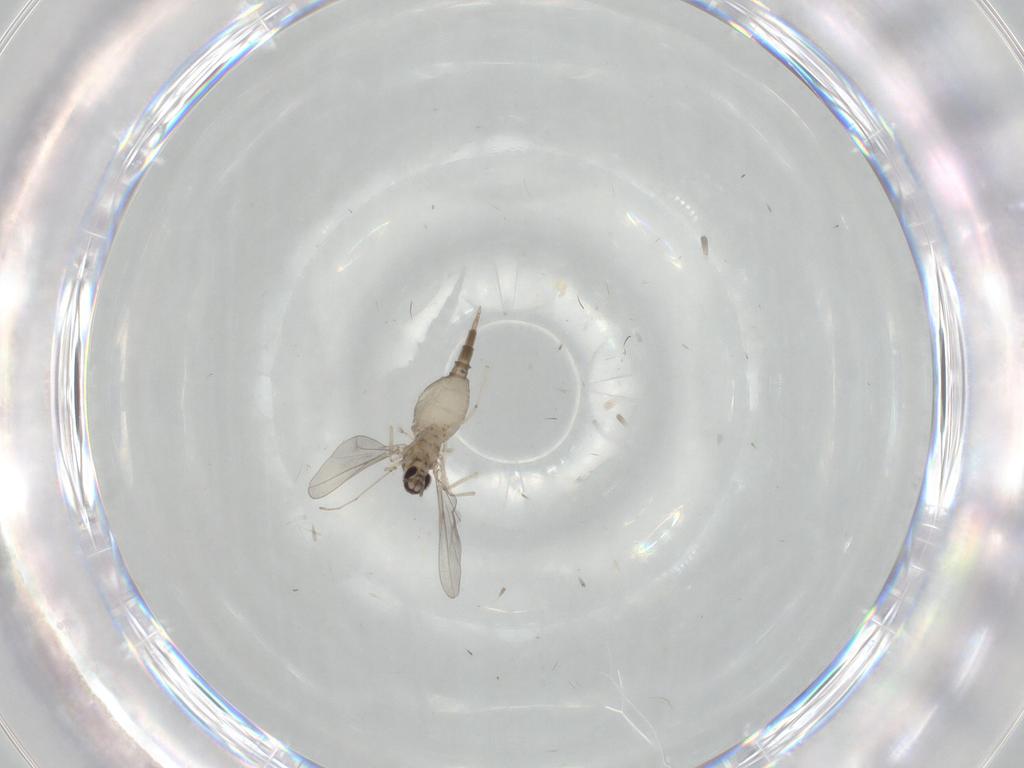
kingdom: Animalia
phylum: Arthropoda
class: Insecta
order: Diptera
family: Cecidomyiidae
